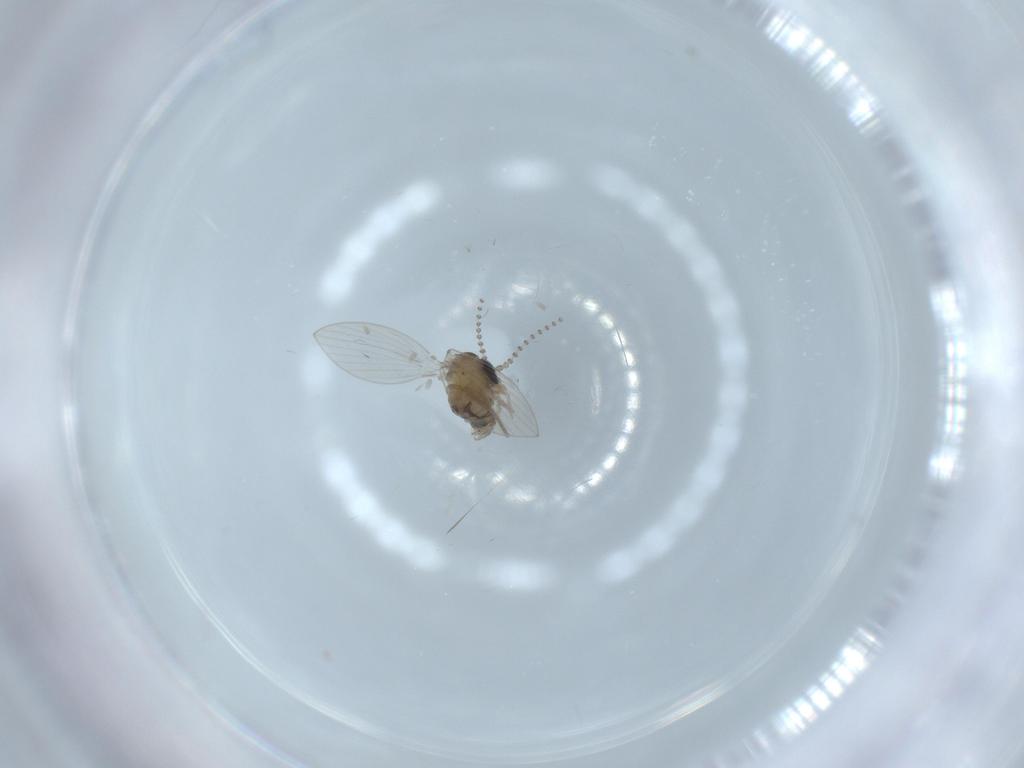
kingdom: Animalia
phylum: Arthropoda
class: Insecta
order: Diptera
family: Psychodidae
